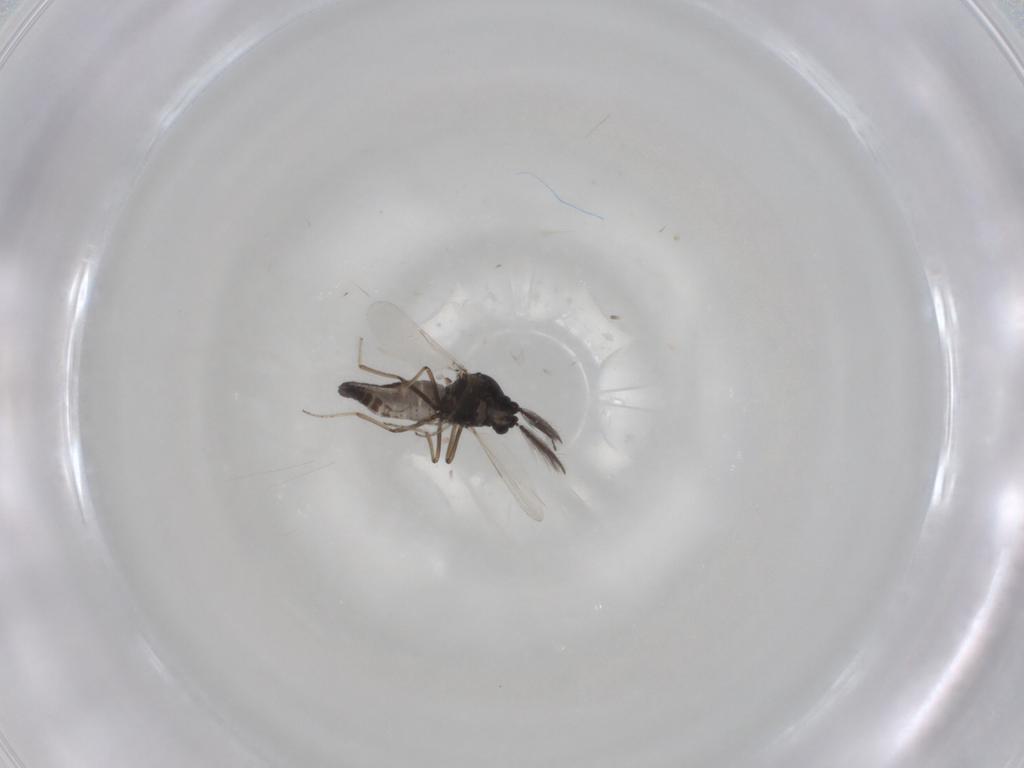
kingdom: Animalia
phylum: Arthropoda
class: Insecta
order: Diptera
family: Ceratopogonidae
